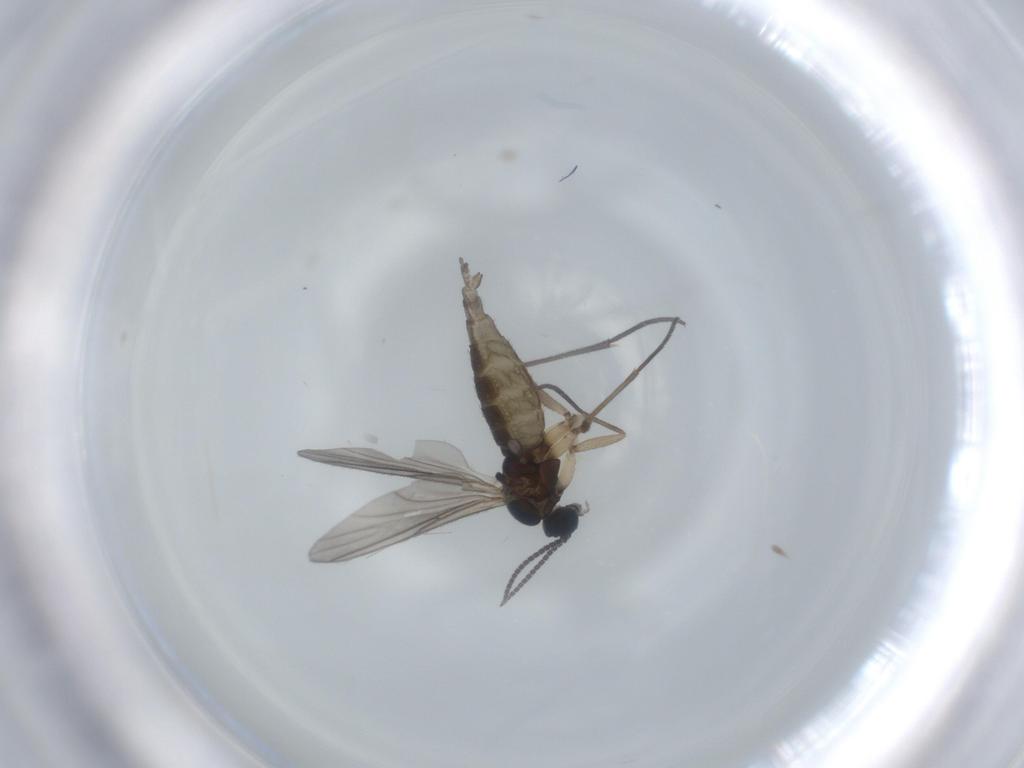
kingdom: Animalia
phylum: Arthropoda
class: Insecta
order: Diptera
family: Sciaridae
